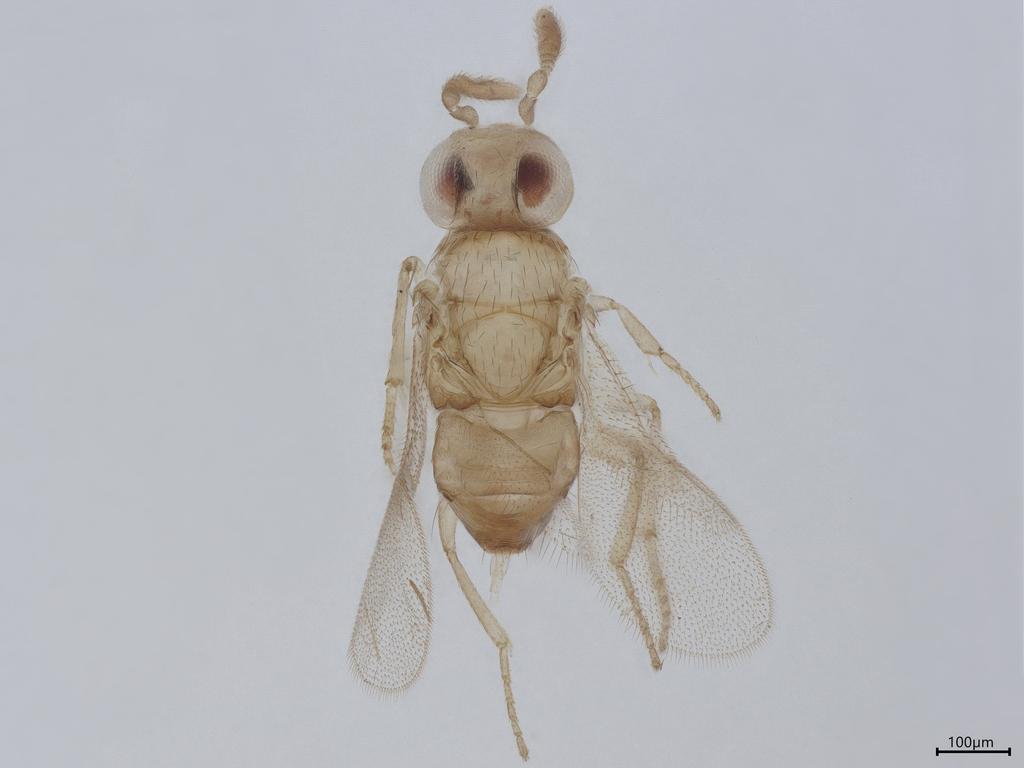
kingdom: Animalia
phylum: Arthropoda
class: Insecta
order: Hymenoptera
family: Encyrtidae
